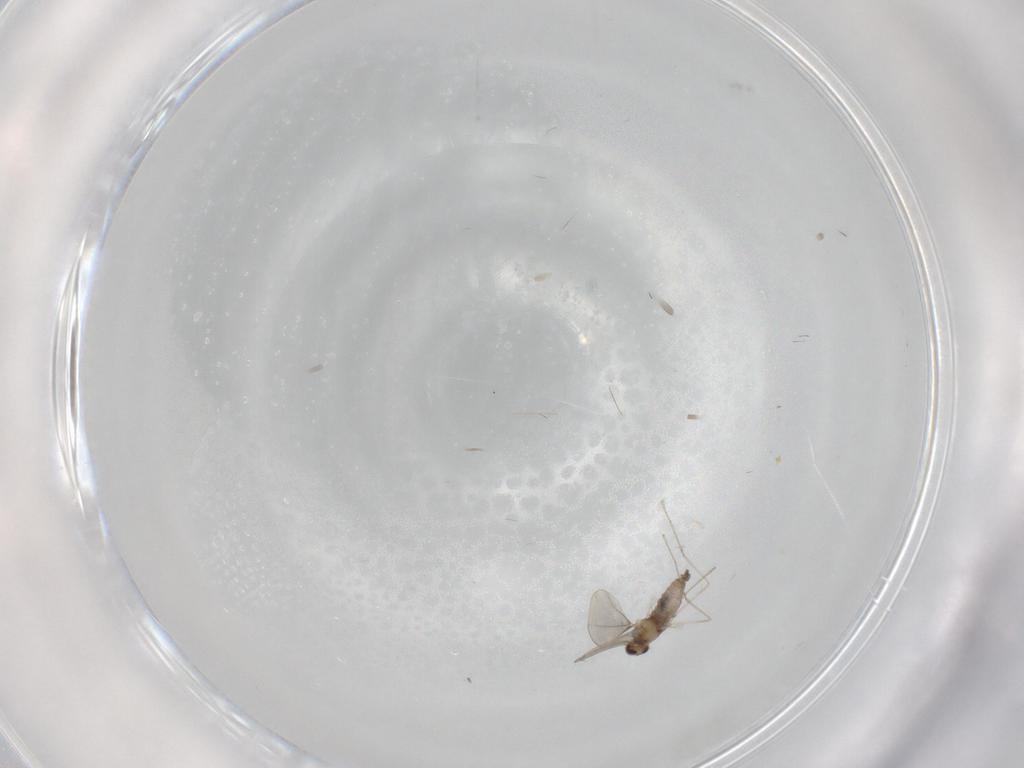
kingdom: Animalia
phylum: Arthropoda
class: Insecta
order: Diptera
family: Cecidomyiidae
